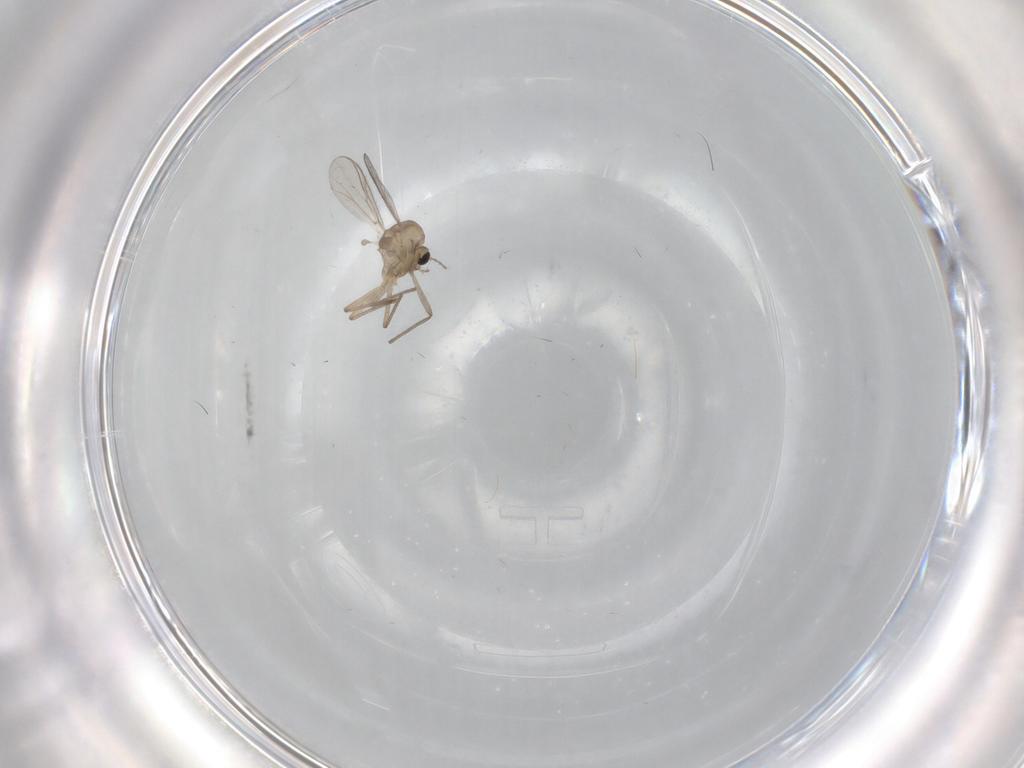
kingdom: Animalia
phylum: Arthropoda
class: Insecta
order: Diptera
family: Chironomidae
